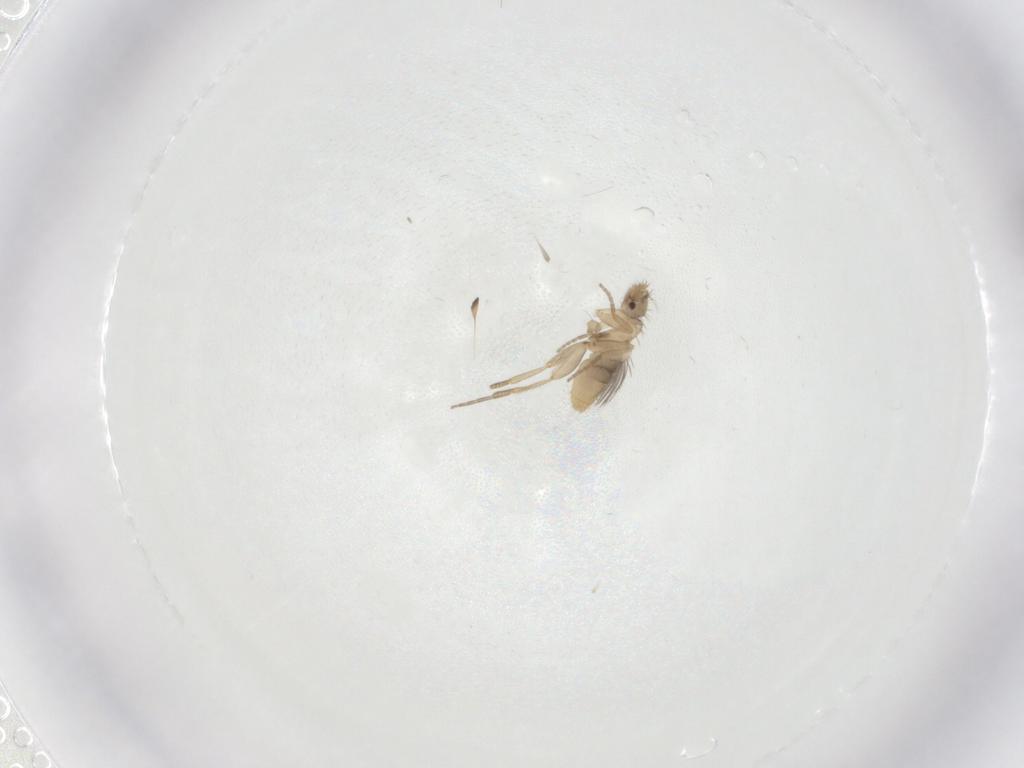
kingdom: Animalia
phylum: Arthropoda
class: Insecta
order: Diptera
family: Phoridae
